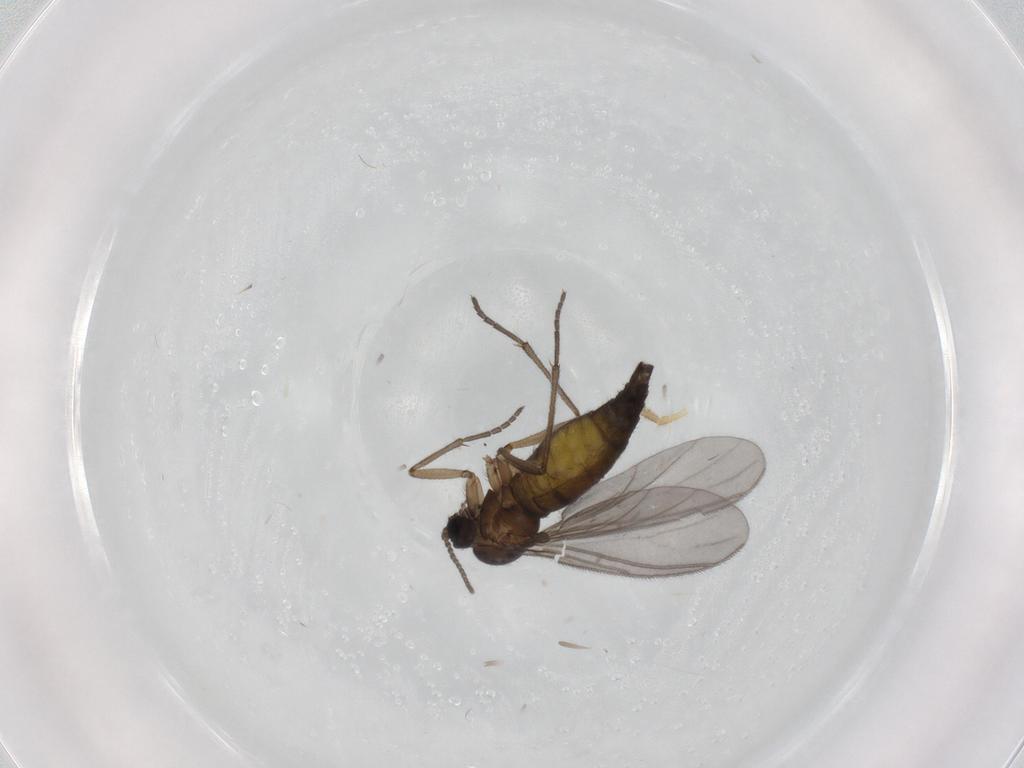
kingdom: Animalia
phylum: Arthropoda
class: Insecta
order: Diptera
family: Sciaridae
